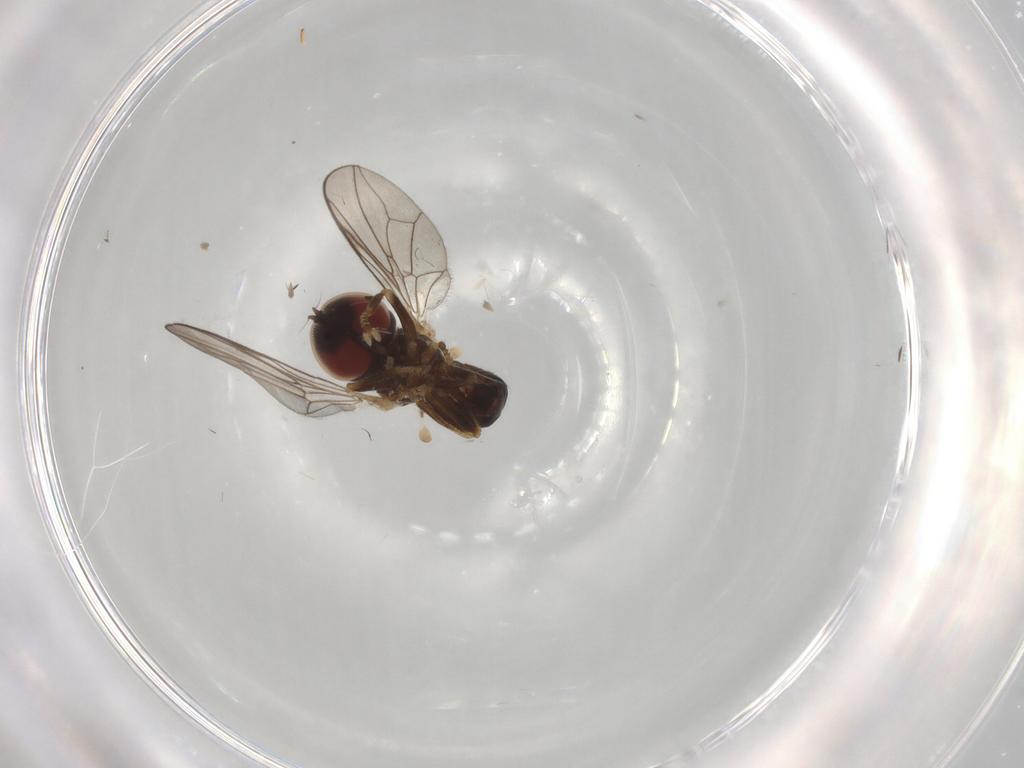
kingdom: Animalia
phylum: Arthropoda
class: Insecta
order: Diptera
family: Pipunculidae
